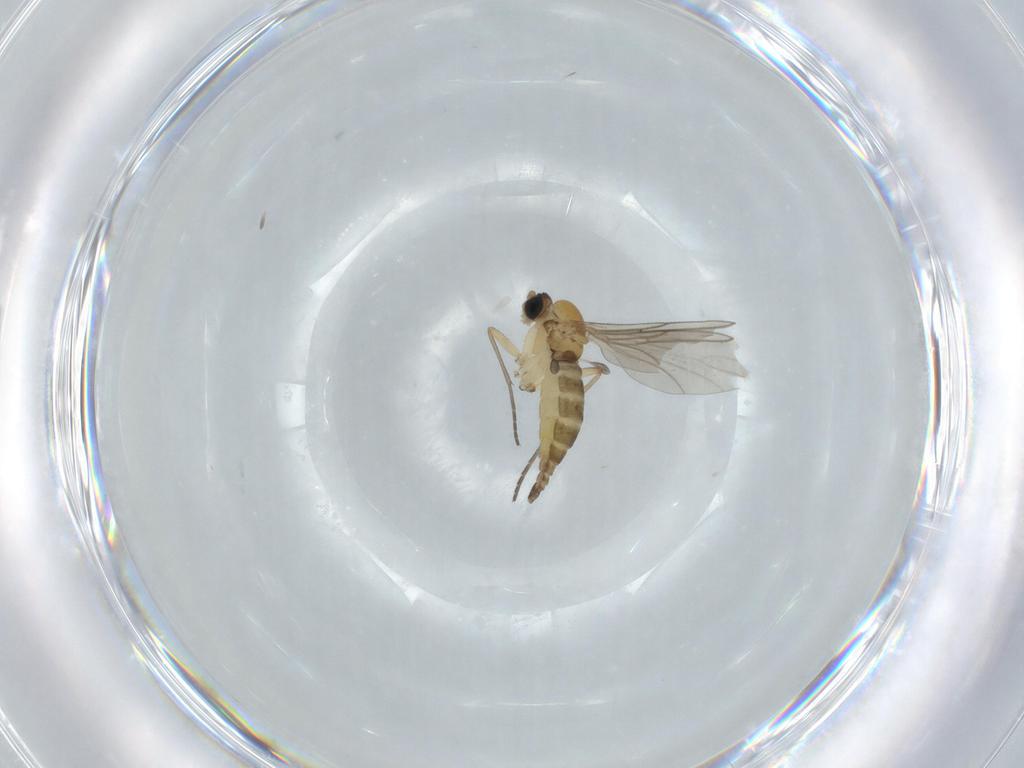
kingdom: Animalia
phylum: Arthropoda
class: Insecta
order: Diptera
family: Sciaridae
